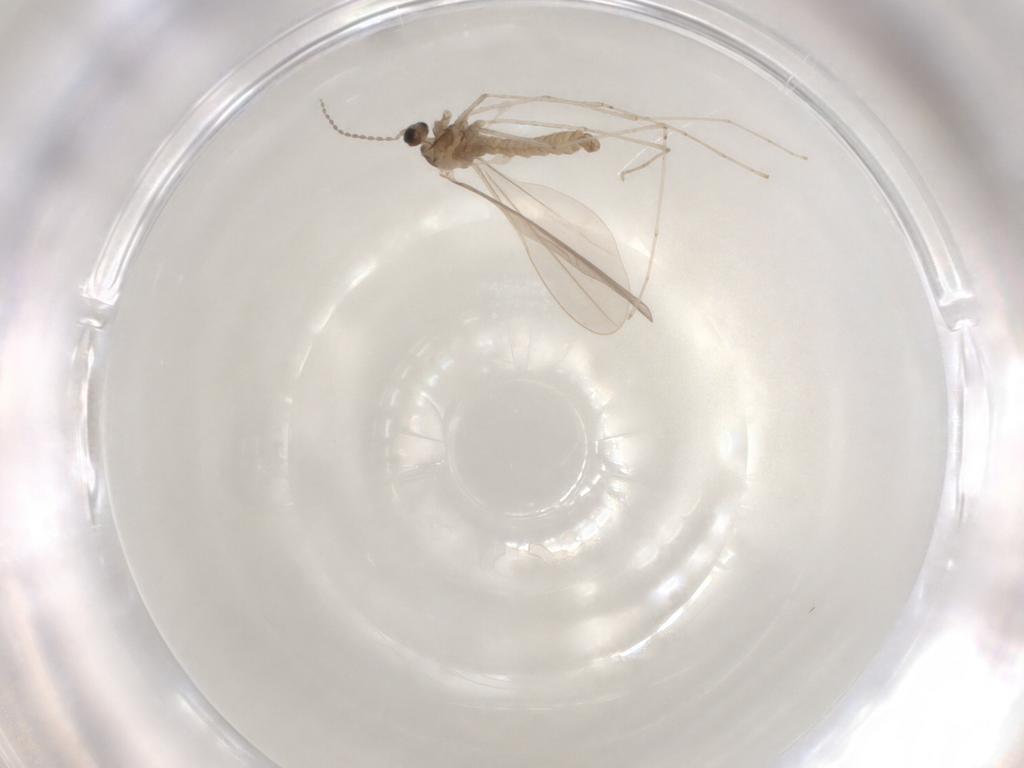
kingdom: Animalia
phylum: Arthropoda
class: Insecta
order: Diptera
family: Cecidomyiidae
